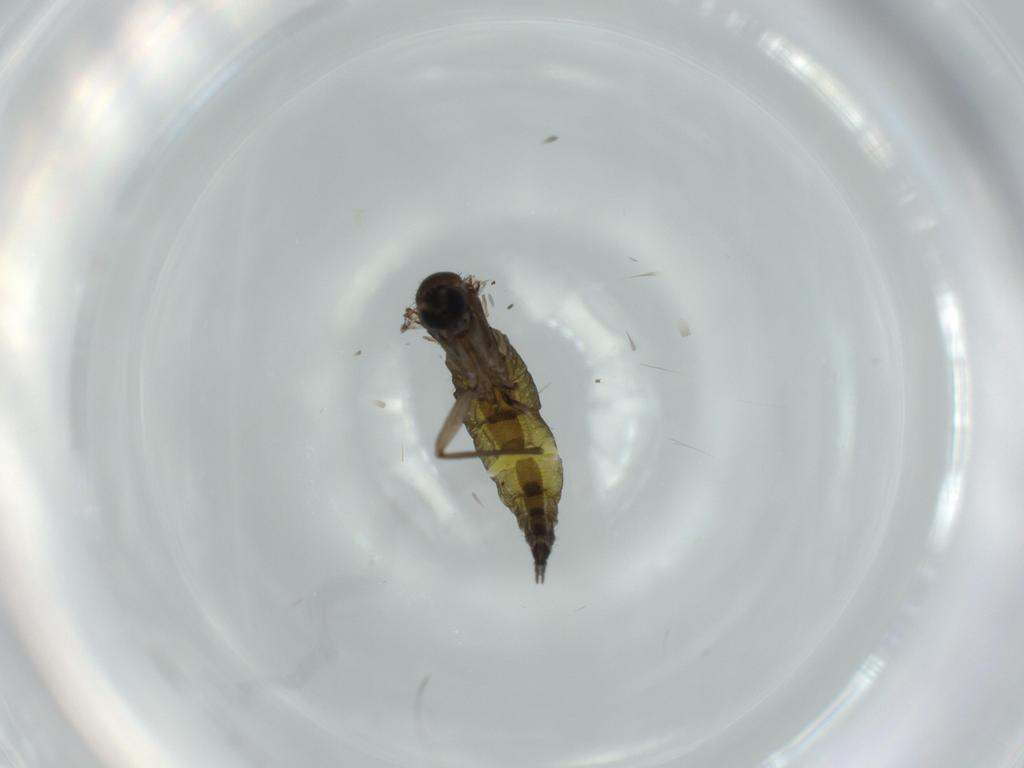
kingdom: Animalia
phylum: Arthropoda
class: Insecta
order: Diptera
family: Sciaridae
